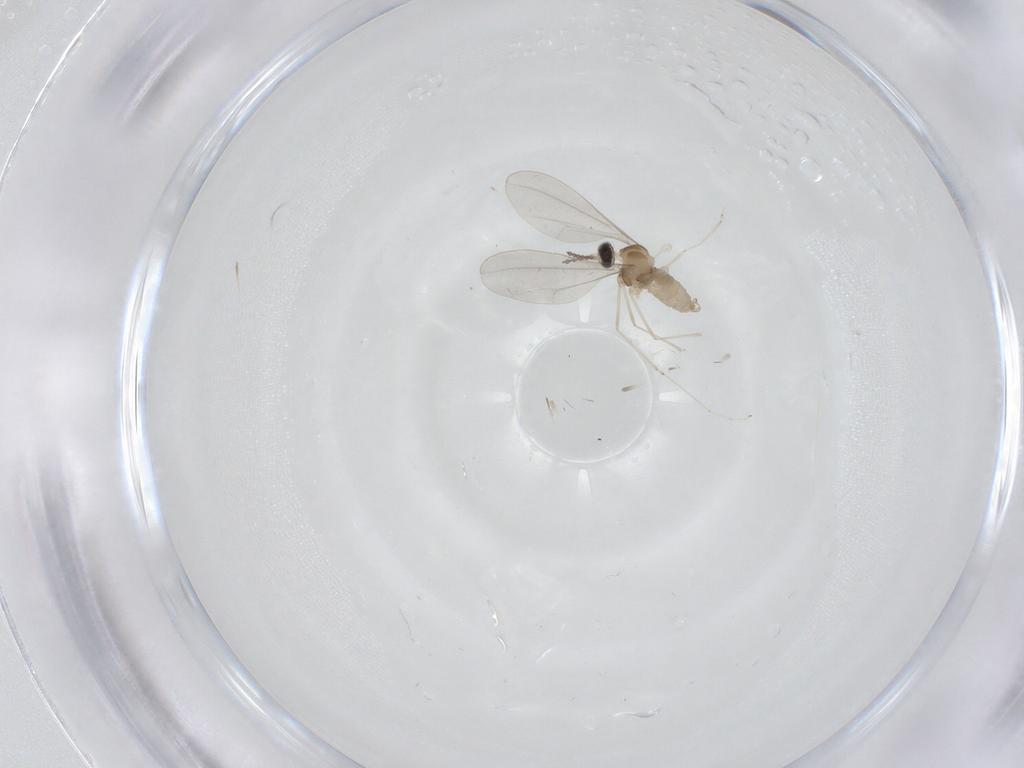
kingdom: Animalia
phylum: Arthropoda
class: Insecta
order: Diptera
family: Cecidomyiidae
